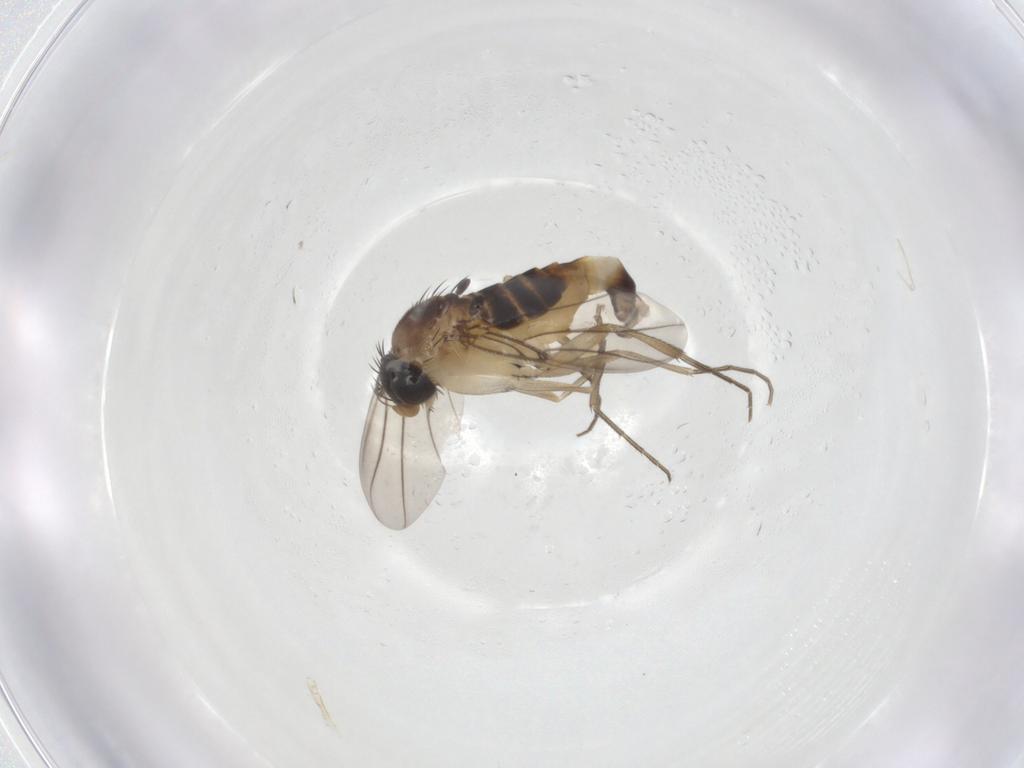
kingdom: Animalia
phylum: Arthropoda
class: Insecta
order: Diptera
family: Phoridae
